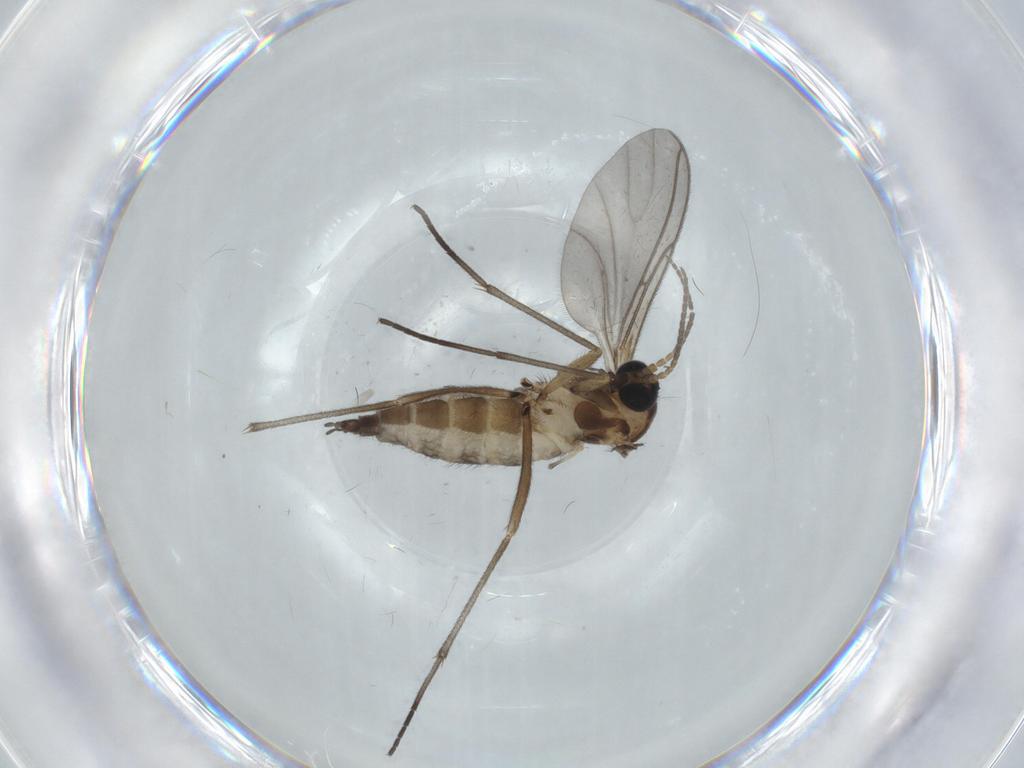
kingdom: Animalia
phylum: Arthropoda
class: Insecta
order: Diptera
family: Sciaridae
